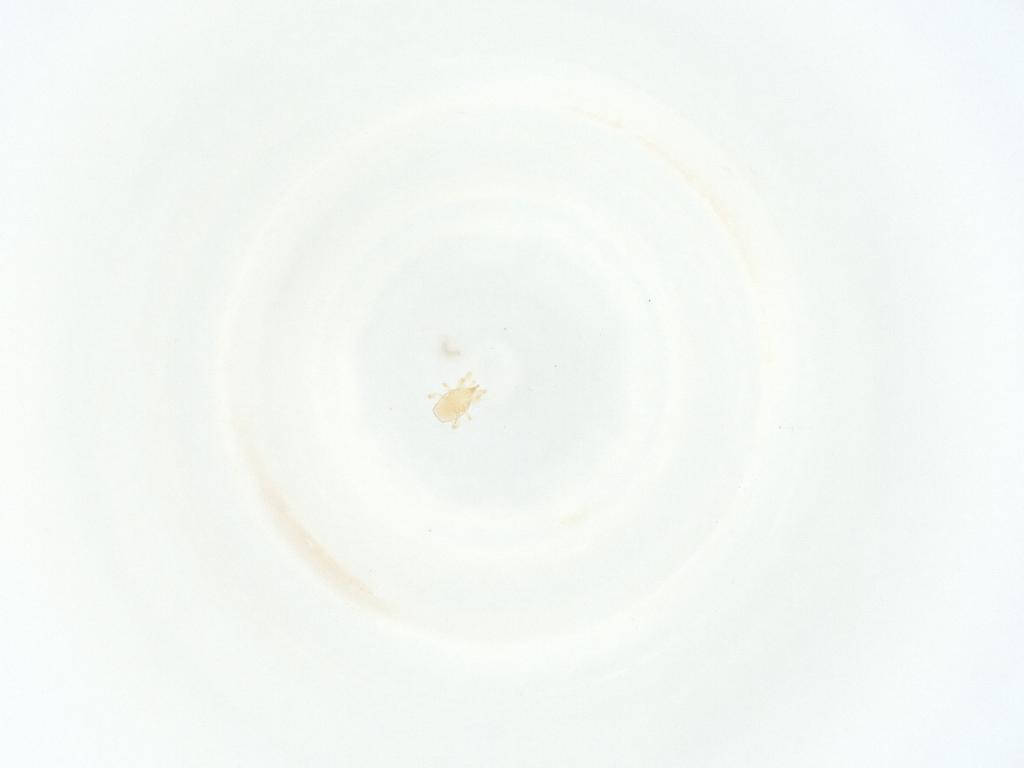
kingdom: Animalia
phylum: Arthropoda
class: Arachnida
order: Mesostigmata
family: Phytoseiidae
